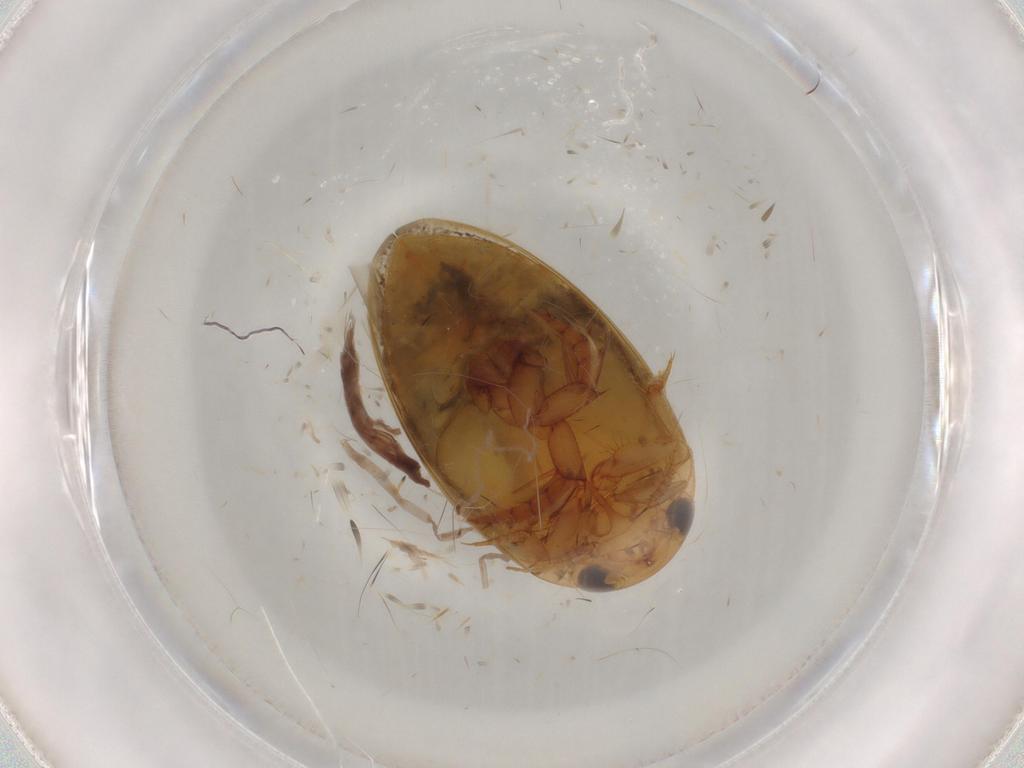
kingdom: Animalia
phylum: Arthropoda
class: Insecta
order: Coleoptera
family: Dytiscidae
